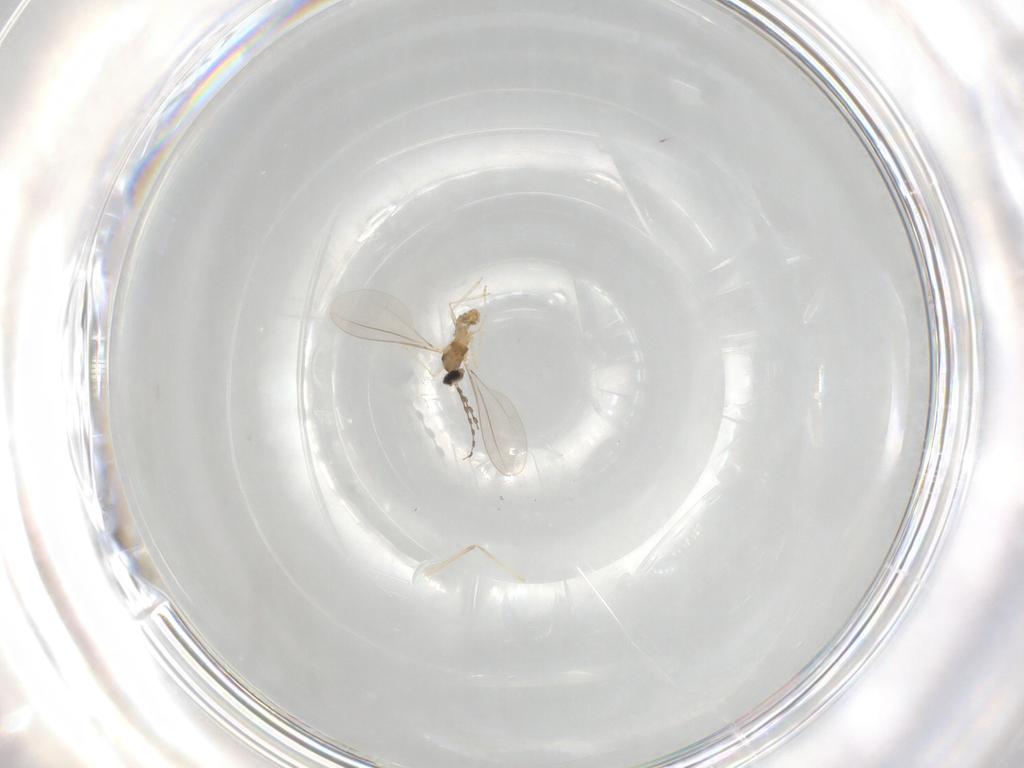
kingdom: Animalia
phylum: Arthropoda
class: Insecta
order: Diptera
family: Cecidomyiidae
